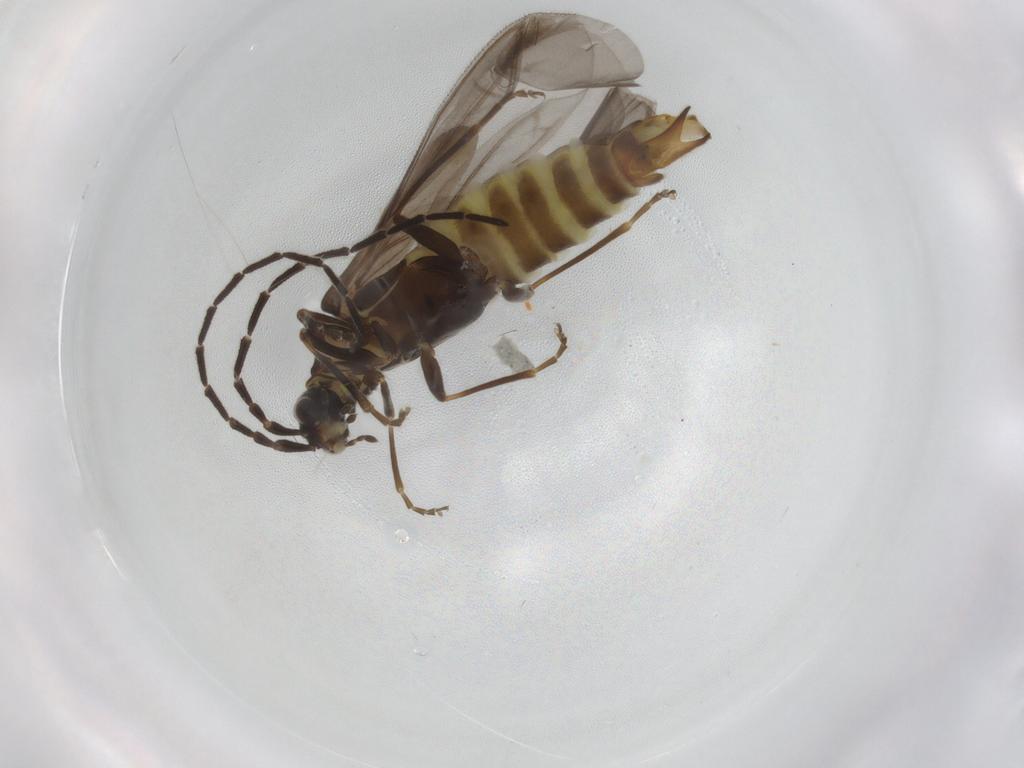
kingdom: Animalia
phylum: Arthropoda
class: Insecta
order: Coleoptera
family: Cantharidae
